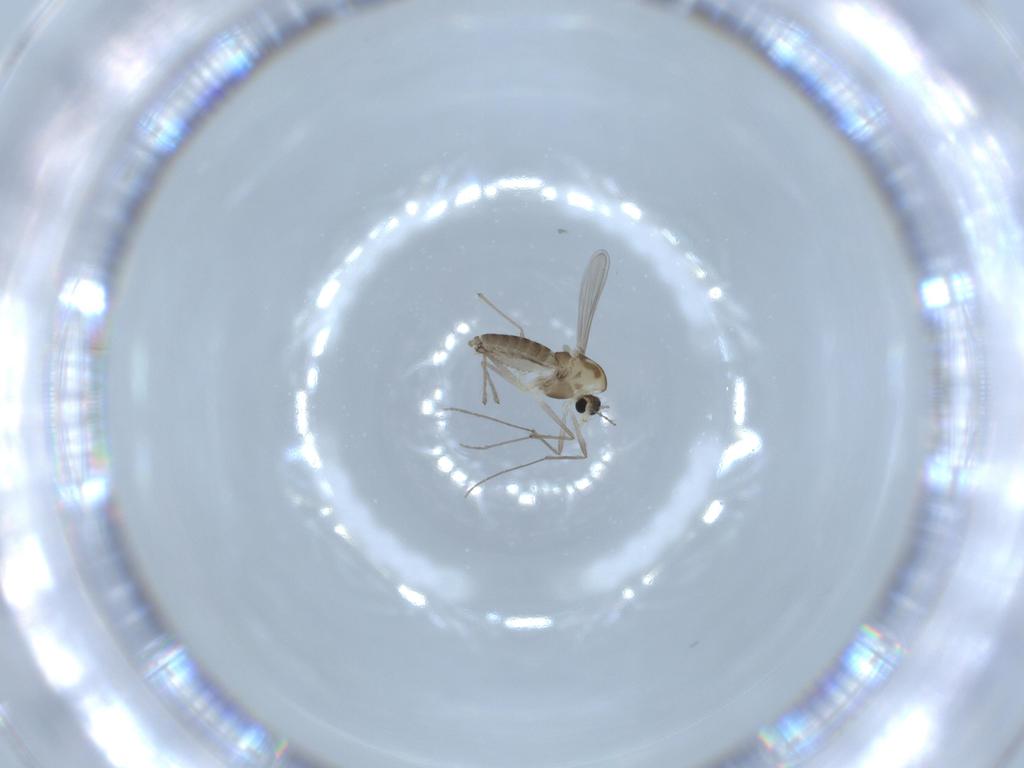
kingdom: Animalia
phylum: Arthropoda
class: Insecta
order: Diptera
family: Chironomidae
